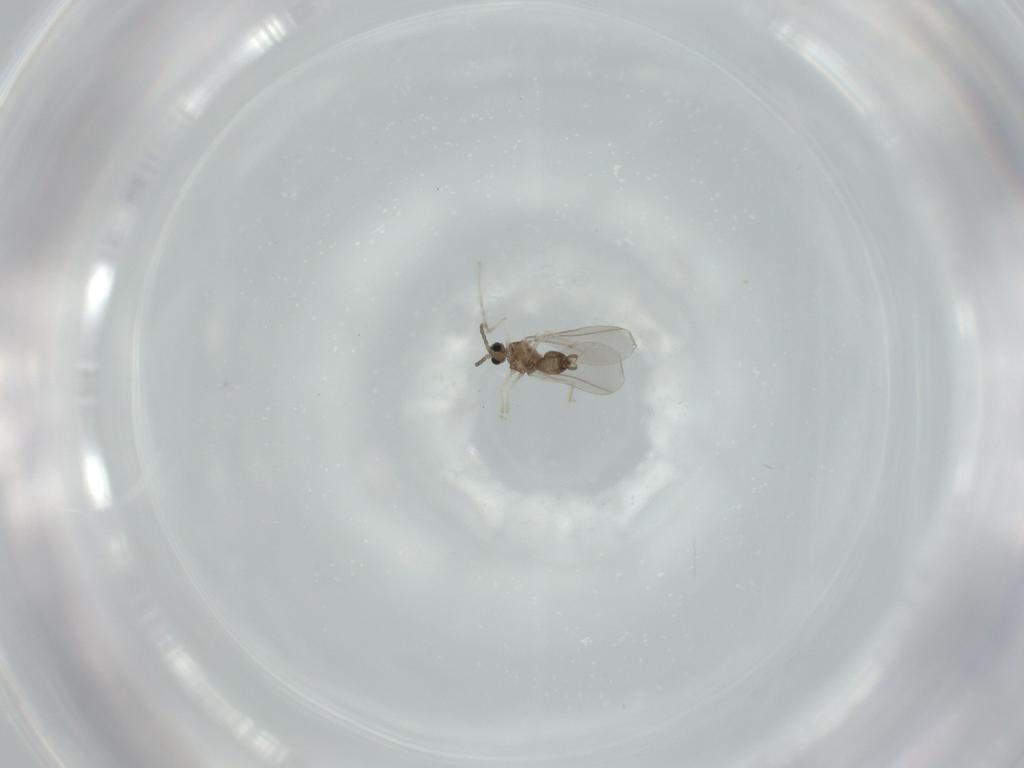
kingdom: Animalia
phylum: Arthropoda
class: Insecta
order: Diptera
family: Cecidomyiidae
